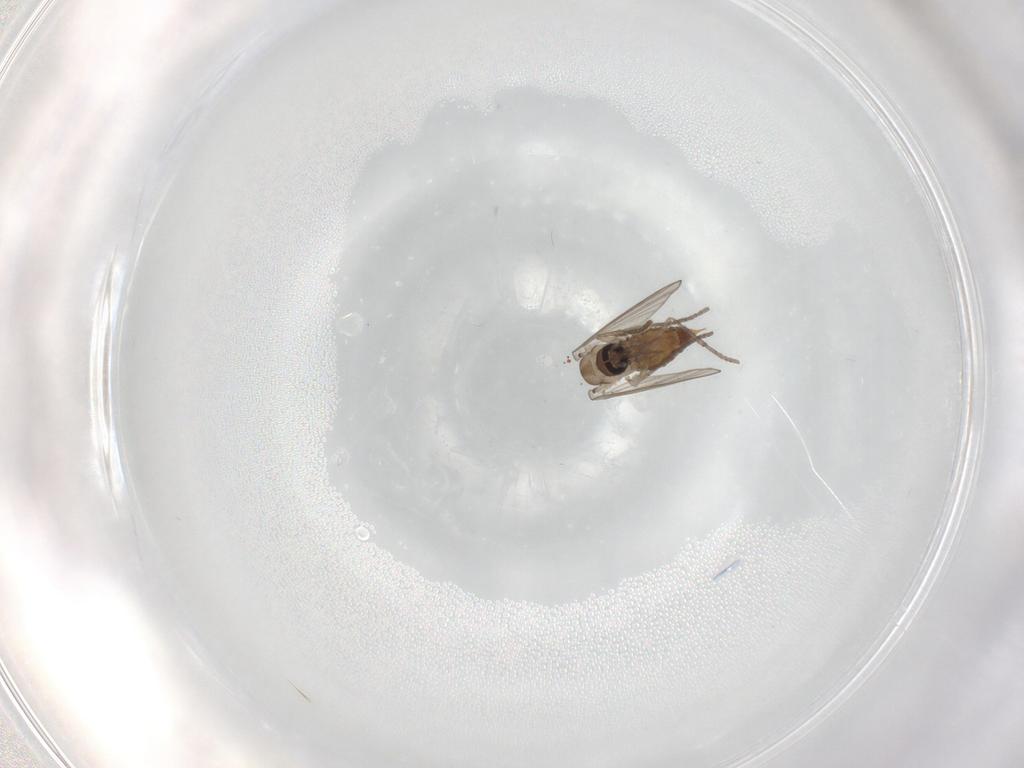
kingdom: Animalia
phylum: Arthropoda
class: Insecta
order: Diptera
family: Psychodidae
